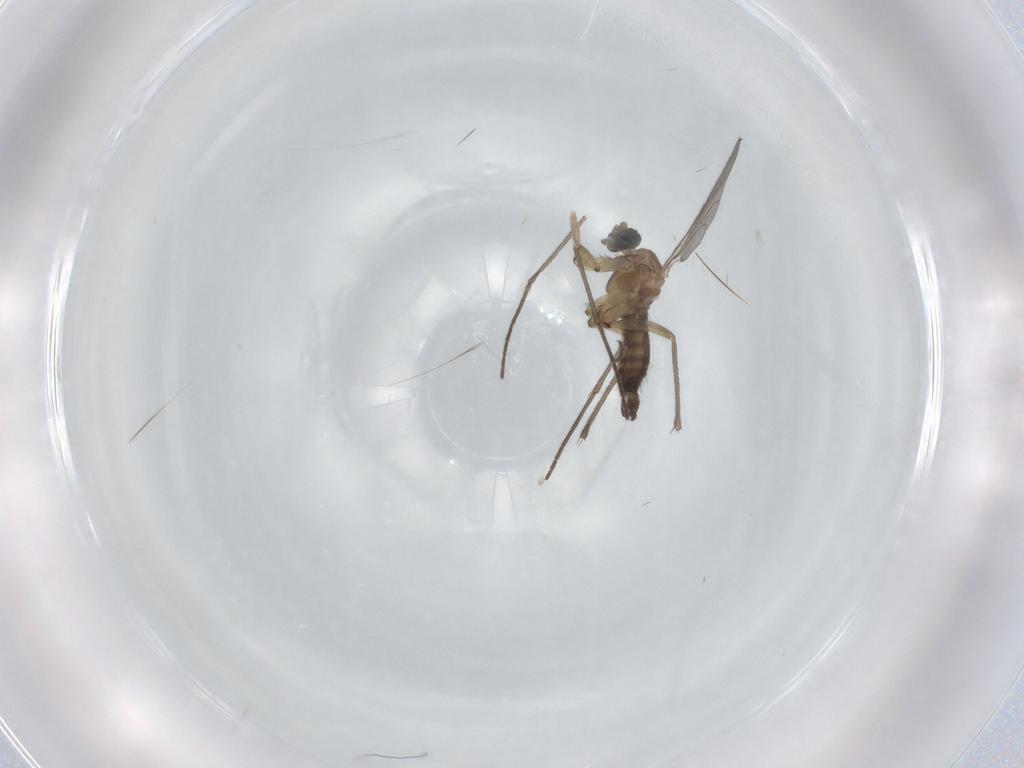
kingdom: Animalia
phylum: Arthropoda
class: Insecta
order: Diptera
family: Sciaridae
